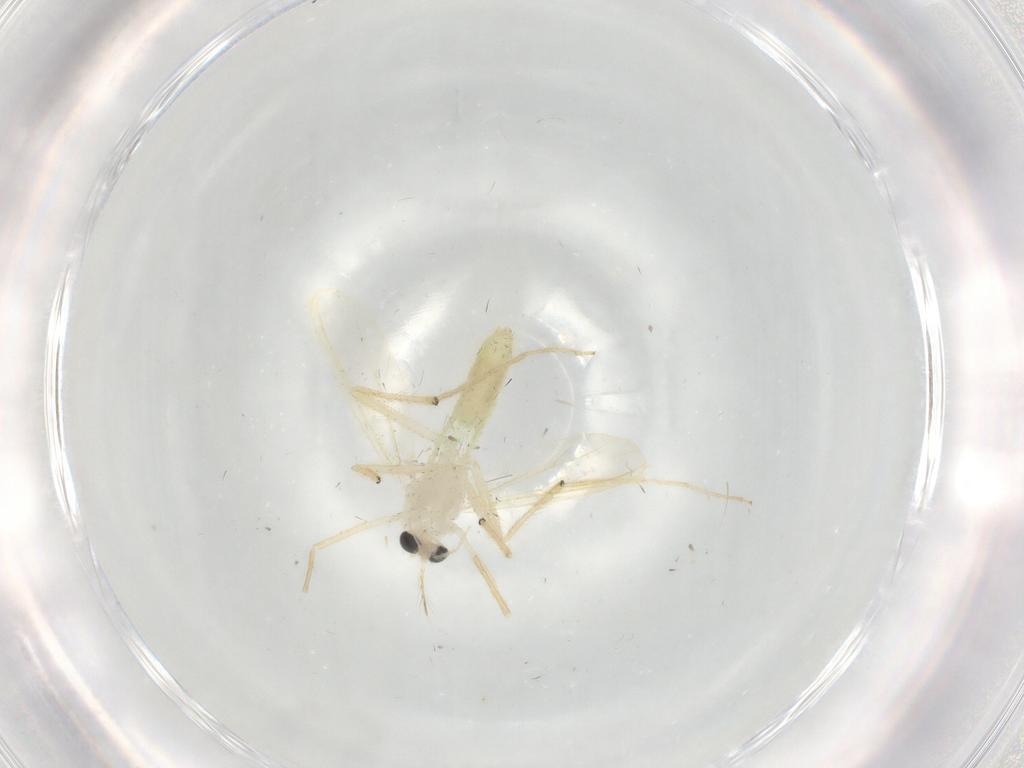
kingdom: Animalia
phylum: Arthropoda
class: Insecta
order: Diptera
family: Chironomidae
